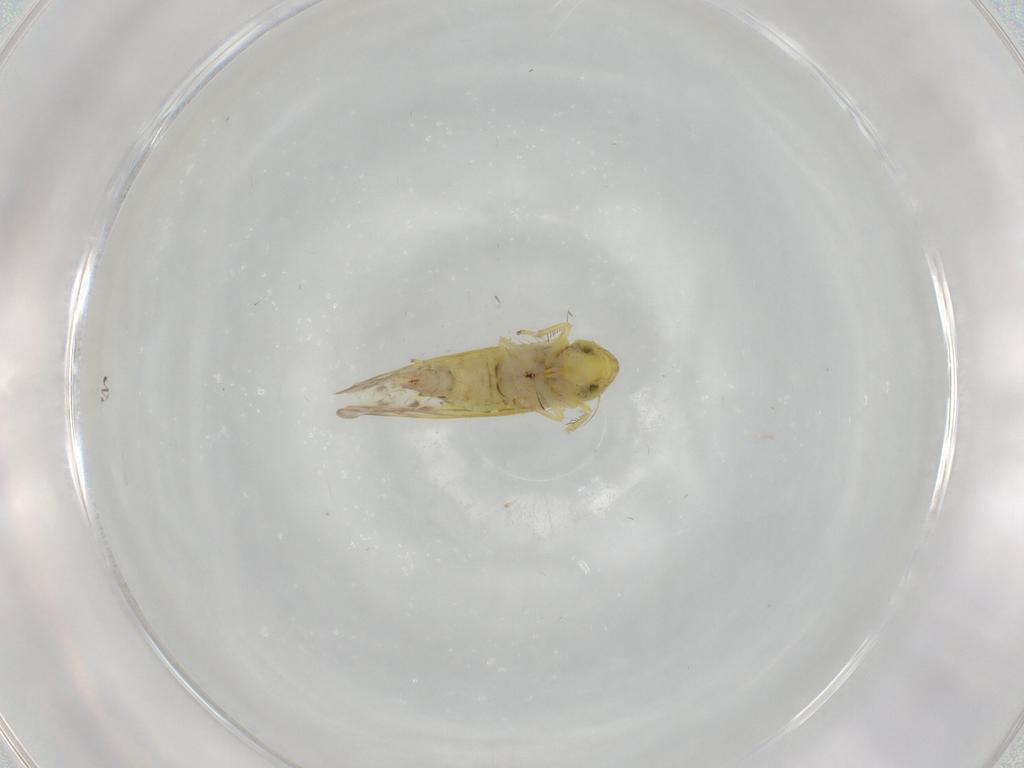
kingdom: Animalia
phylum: Arthropoda
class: Insecta
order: Hemiptera
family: Cicadellidae
